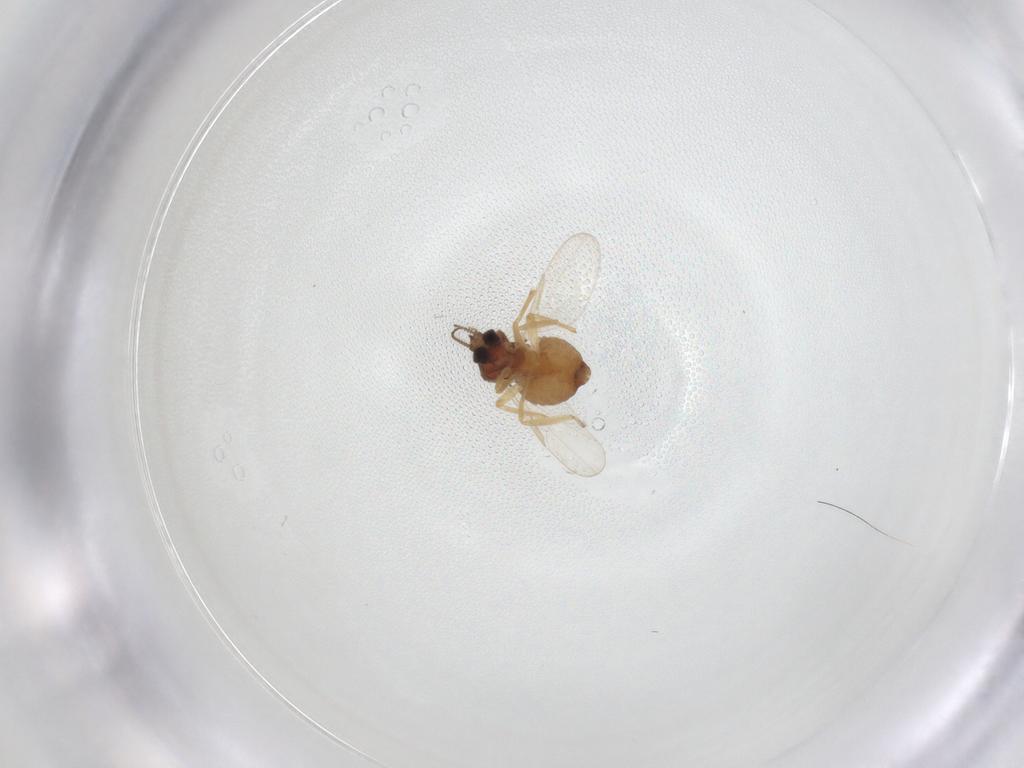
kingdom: Animalia
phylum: Arthropoda
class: Insecta
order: Diptera
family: Ceratopogonidae
